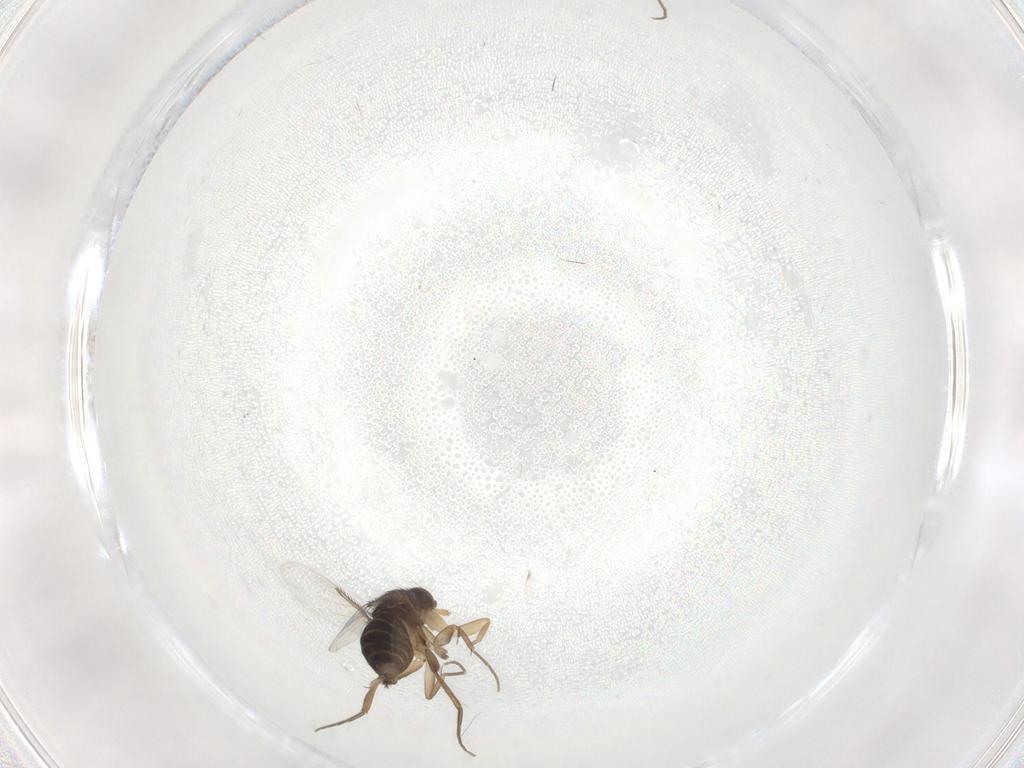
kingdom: Animalia
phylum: Arthropoda
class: Insecta
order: Diptera
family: Phoridae
